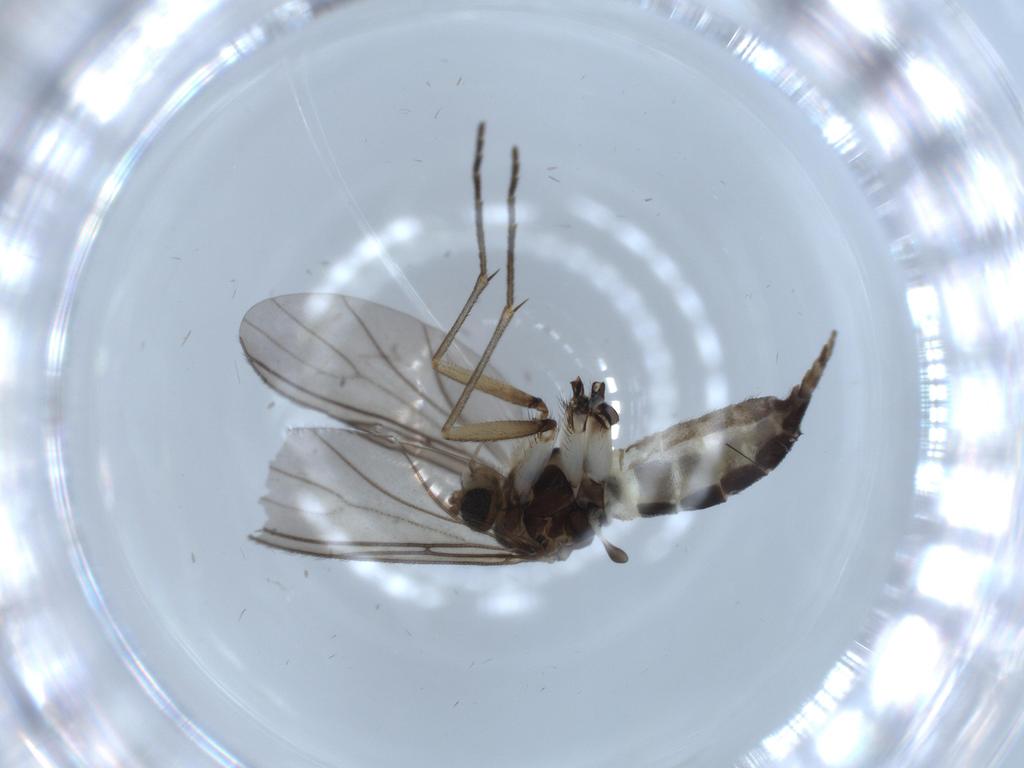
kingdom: Animalia
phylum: Arthropoda
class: Insecta
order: Diptera
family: Sciaridae
